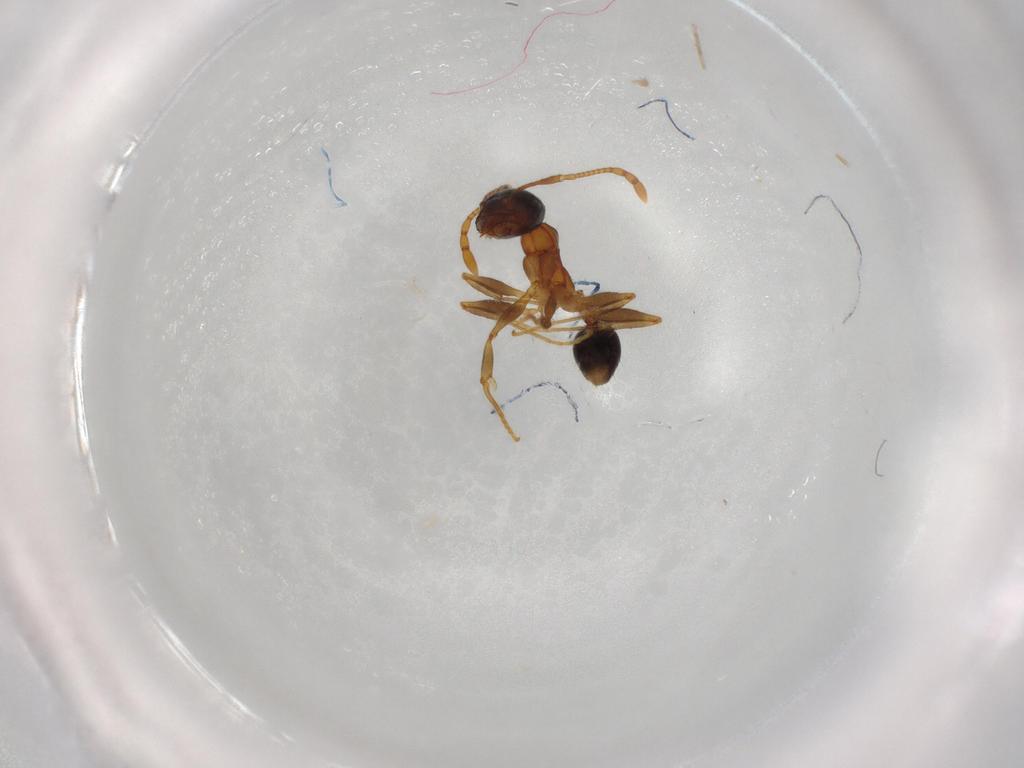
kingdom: Animalia
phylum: Arthropoda
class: Insecta
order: Hymenoptera
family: Formicidae
